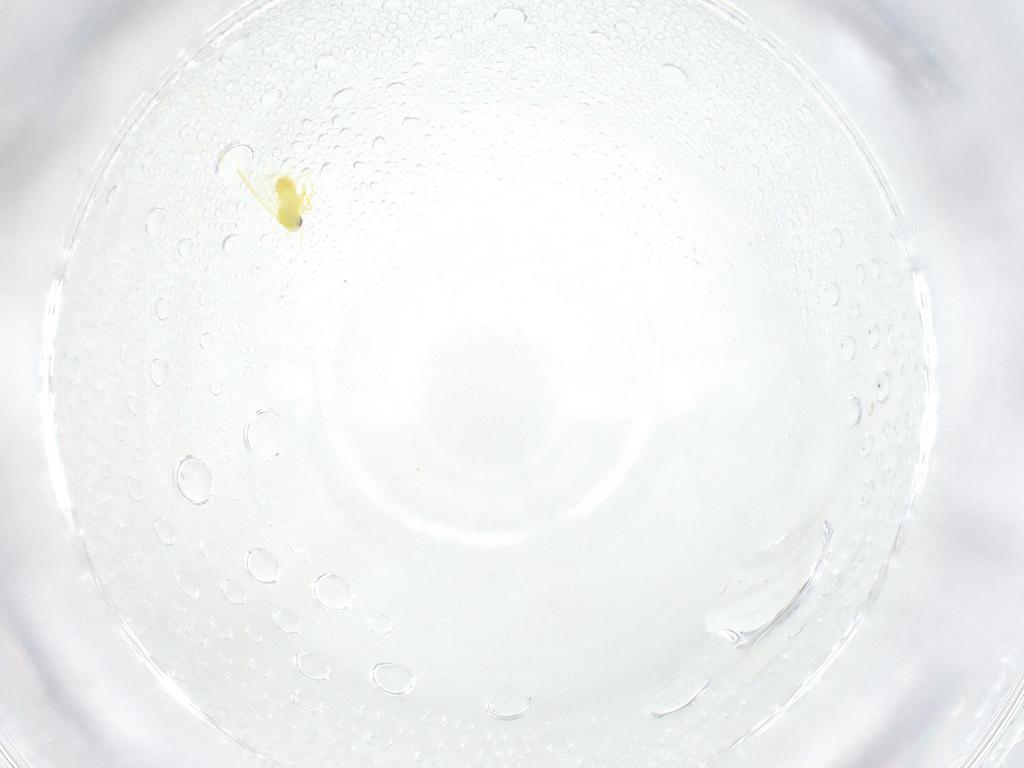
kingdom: Animalia
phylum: Arthropoda
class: Insecta
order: Hemiptera
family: Aleyrodidae
